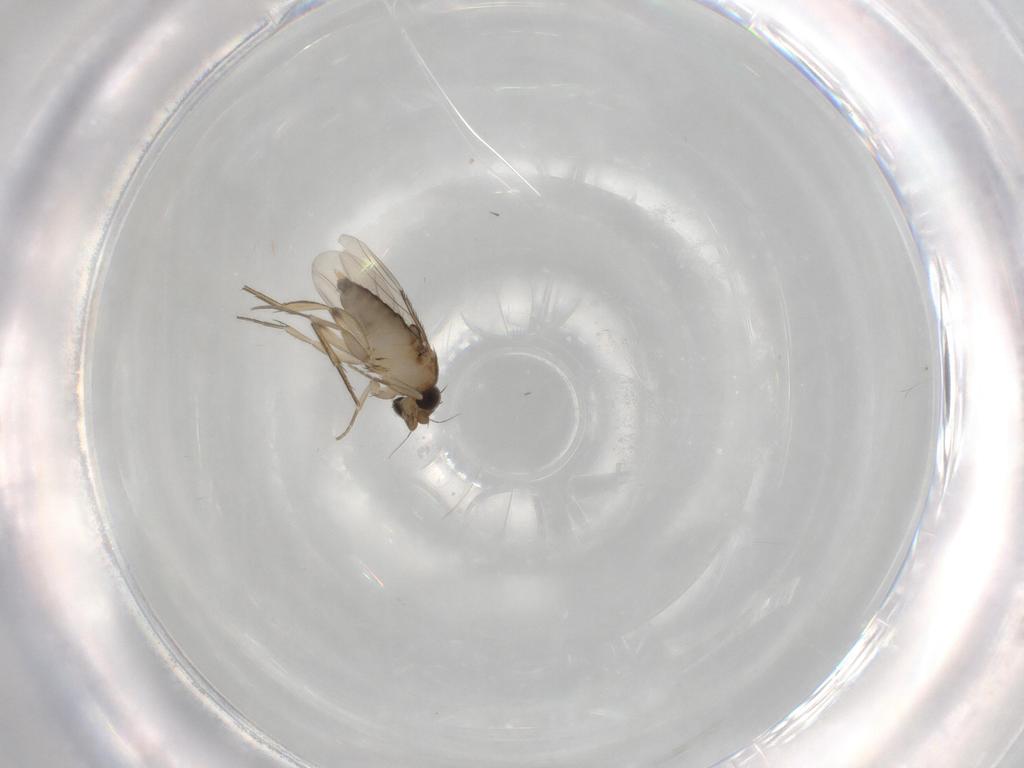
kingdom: Animalia
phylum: Arthropoda
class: Insecta
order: Diptera
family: Phoridae
